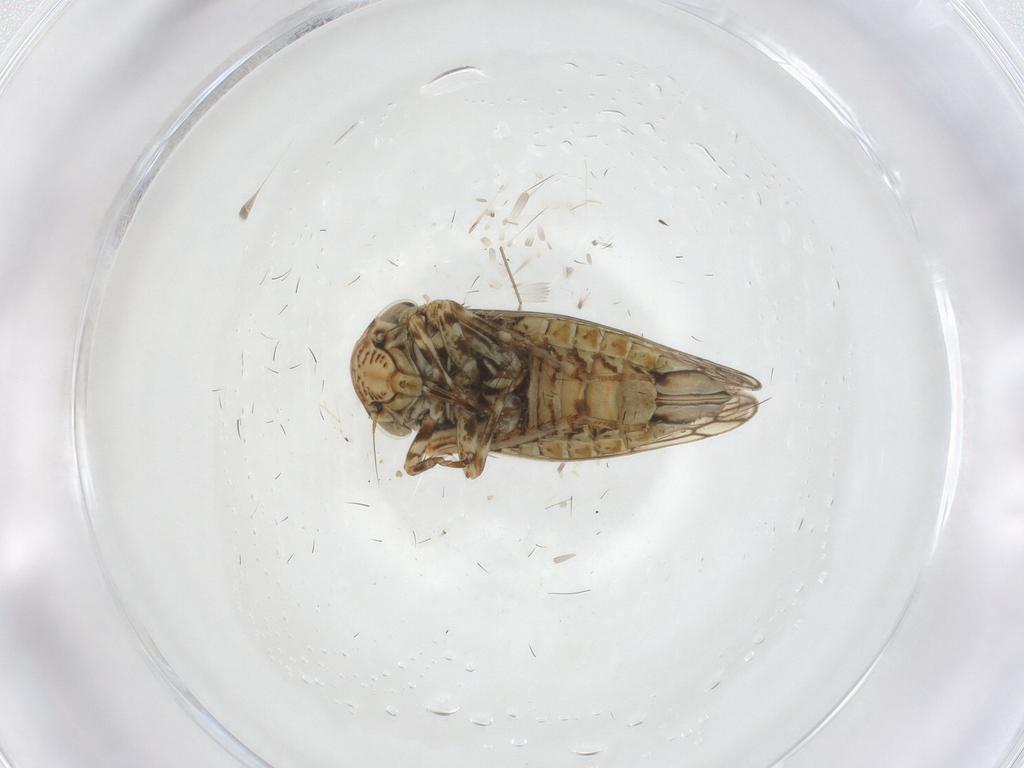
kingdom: Animalia
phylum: Arthropoda
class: Insecta
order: Hemiptera
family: Cicadellidae
